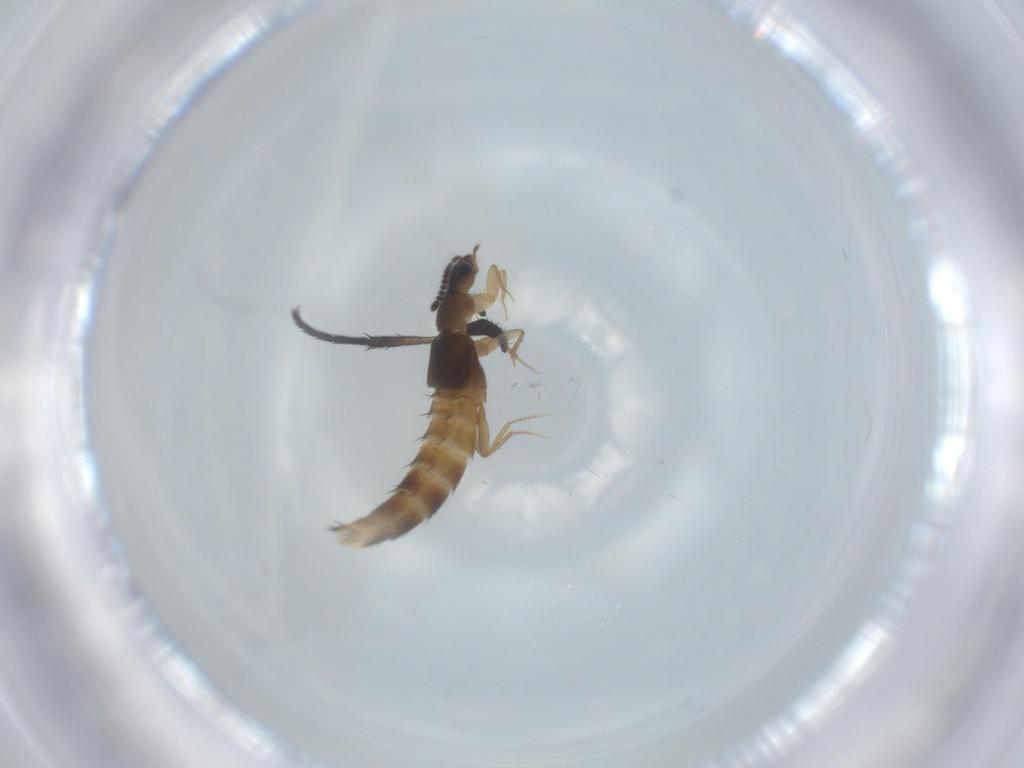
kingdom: Animalia
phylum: Arthropoda
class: Insecta
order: Coleoptera
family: Staphylinidae
